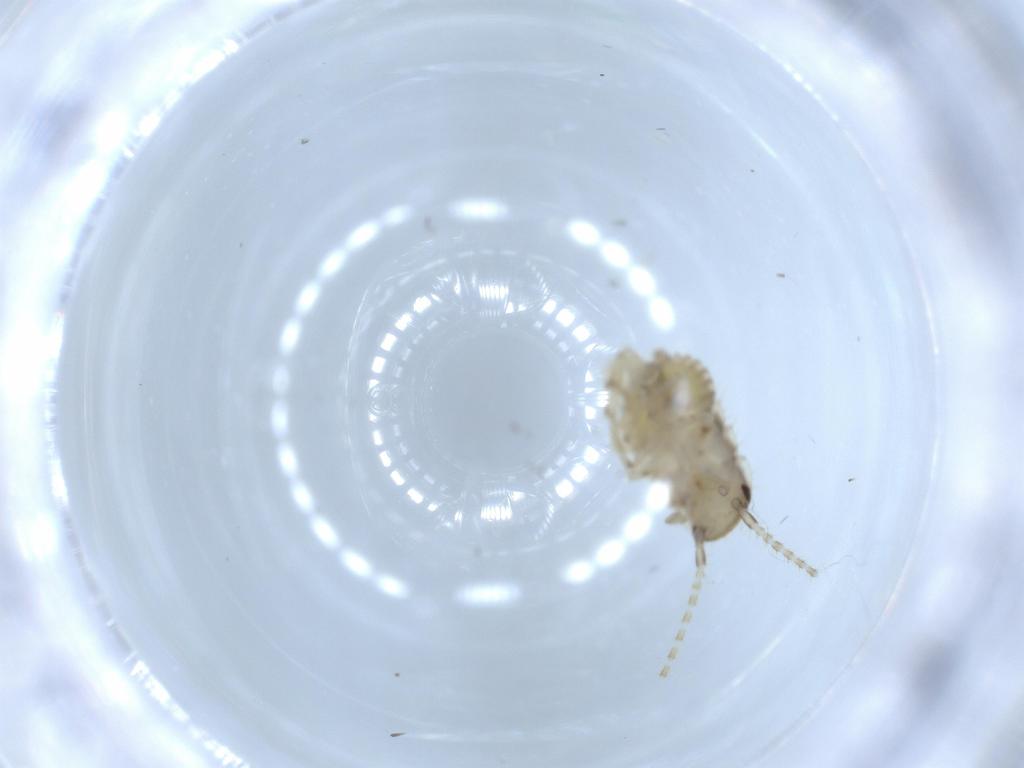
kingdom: Animalia
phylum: Arthropoda
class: Insecta
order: Blattodea
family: Ectobiidae
